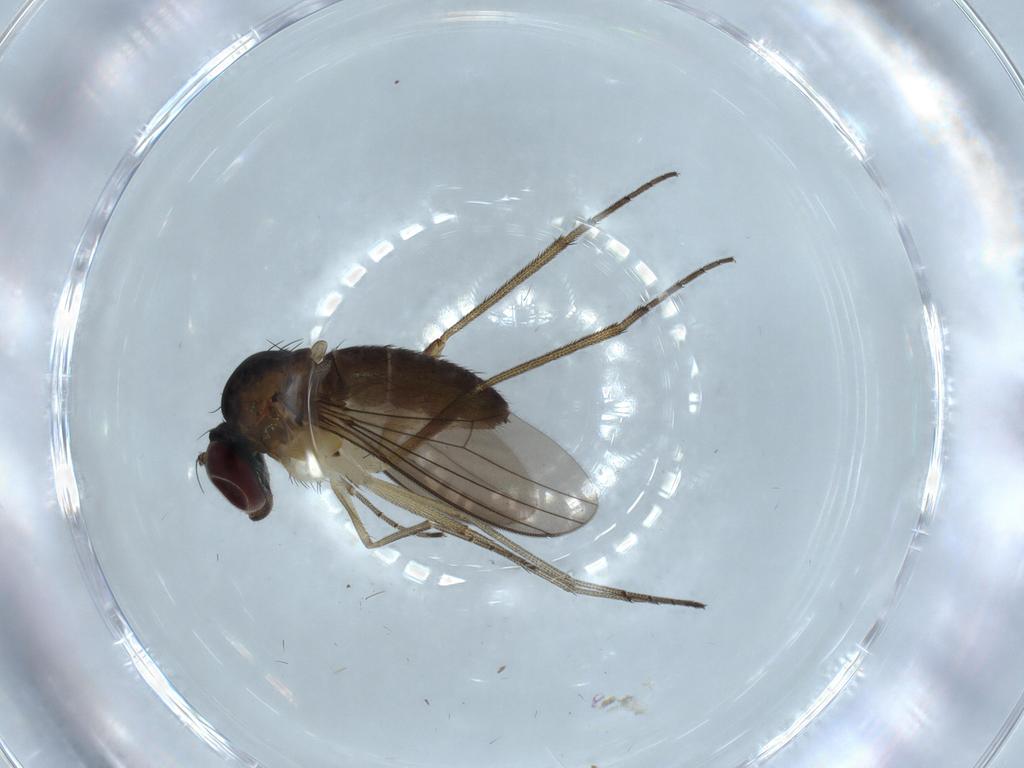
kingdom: Animalia
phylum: Arthropoda
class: Insecta
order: Diptera
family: Dolichopodidae
